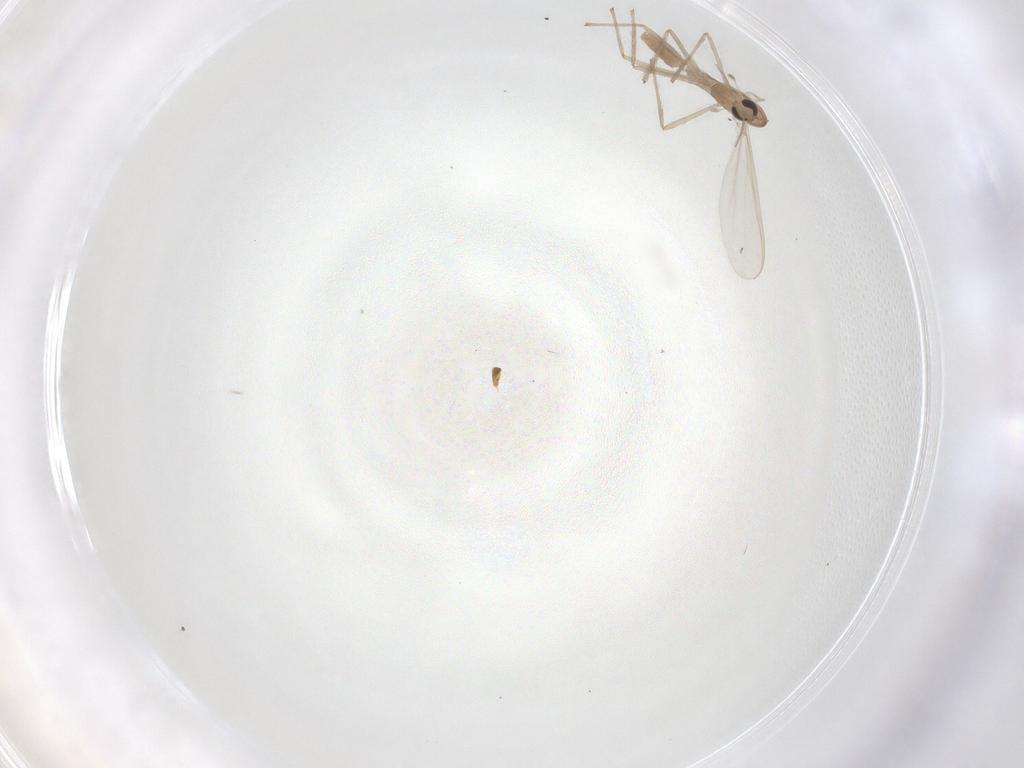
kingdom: Animalia
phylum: Arthropoda
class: Insecta
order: Diptera
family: Chironomidae
